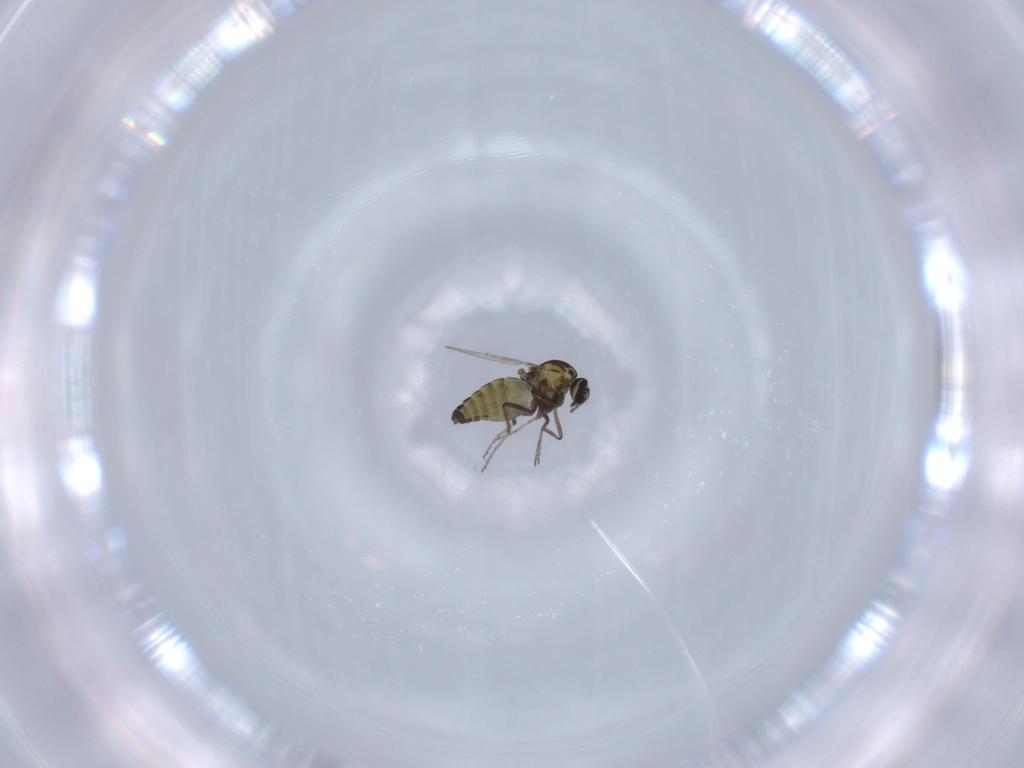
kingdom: Animalia
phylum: Arthropoda
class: Insecta
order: Diptera
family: Ceratopogonidae
